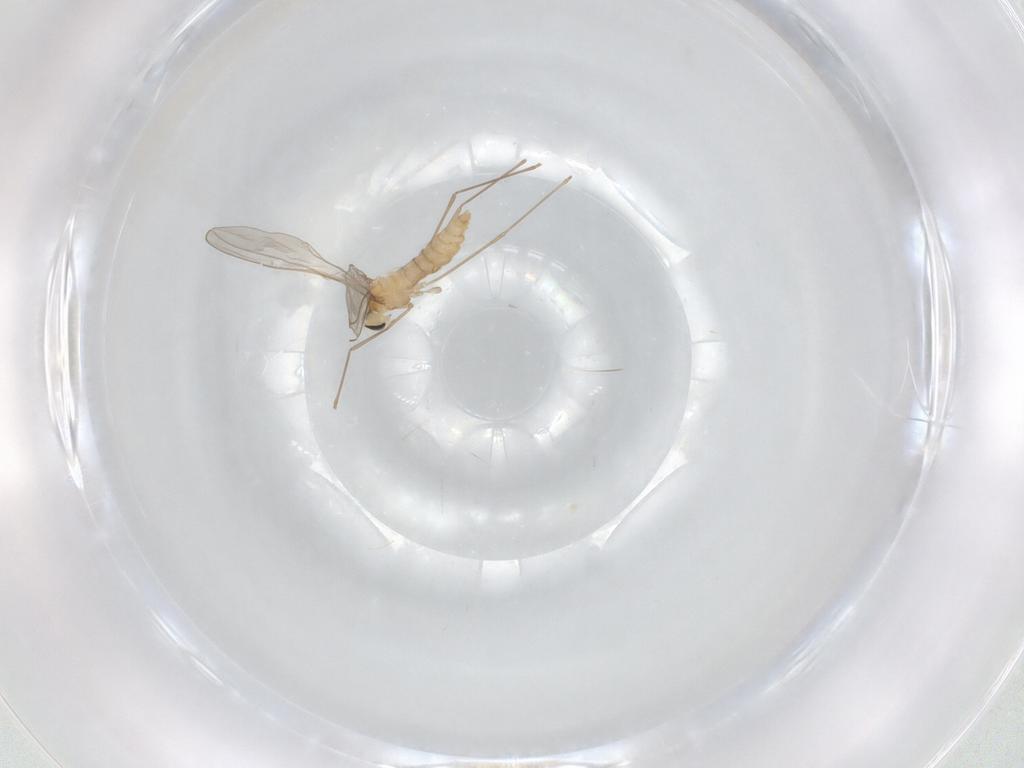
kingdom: Animalia
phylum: Arthropoda
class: Insecta
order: Diptera
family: Cecidomyiidae
